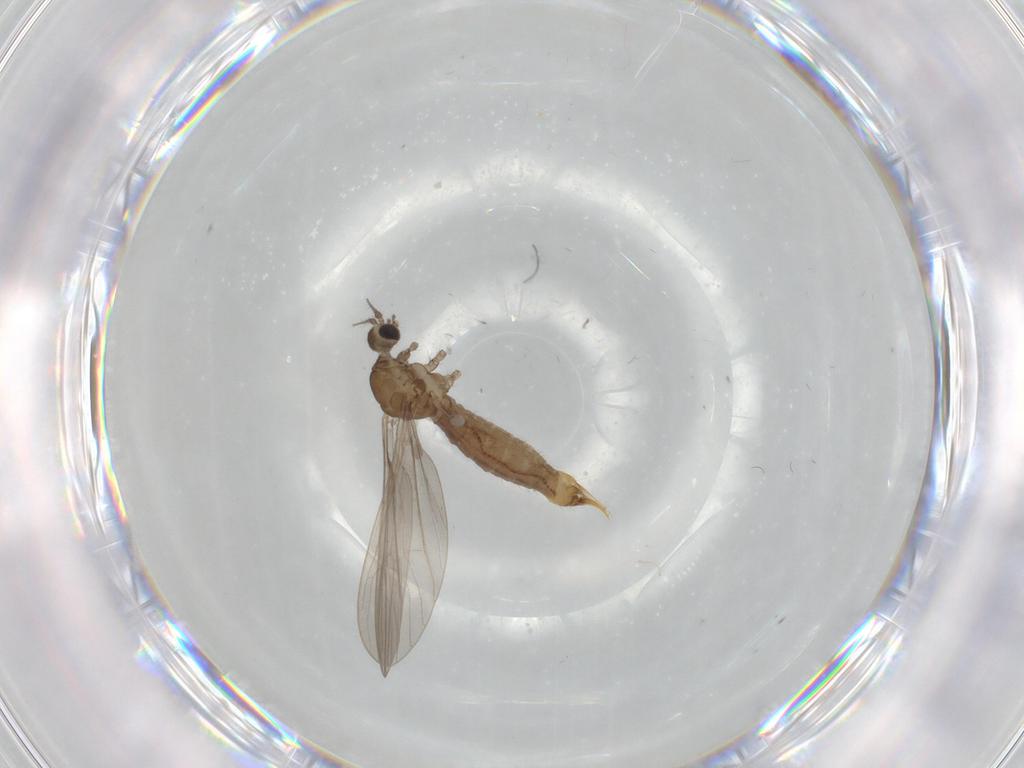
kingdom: Animalia
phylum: Arthropoda
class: Insecta
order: Diptera
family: Limoniidae
